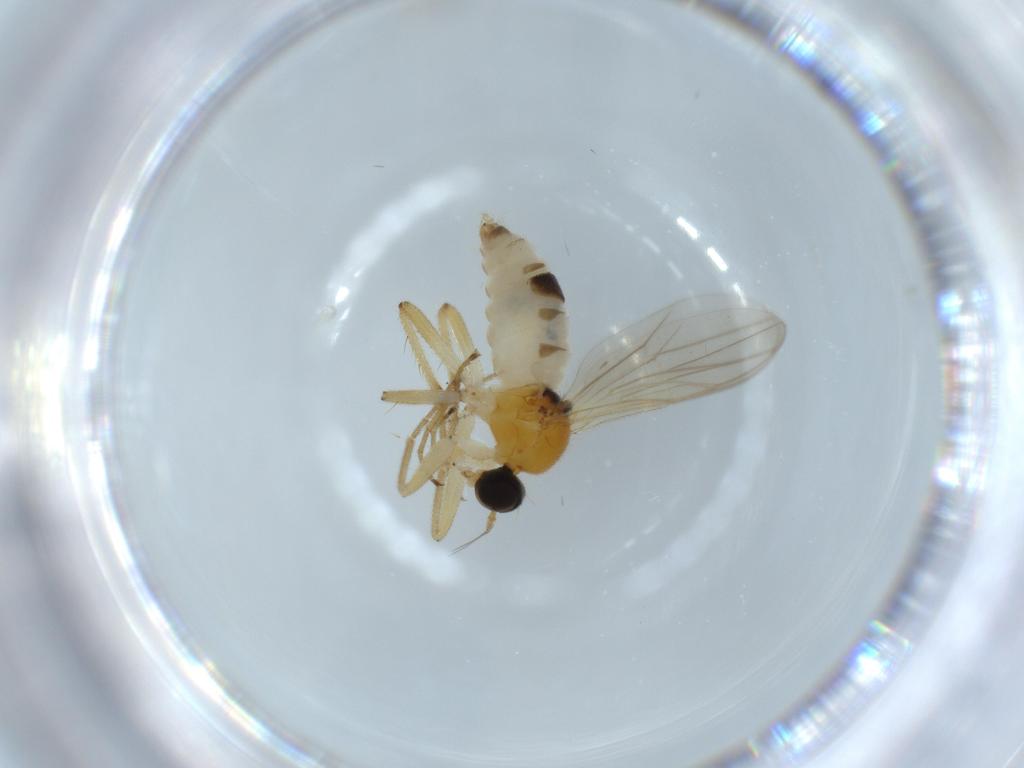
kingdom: Animalia
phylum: Arthropoda
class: Insecta
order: Diptera
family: Hybotidae
